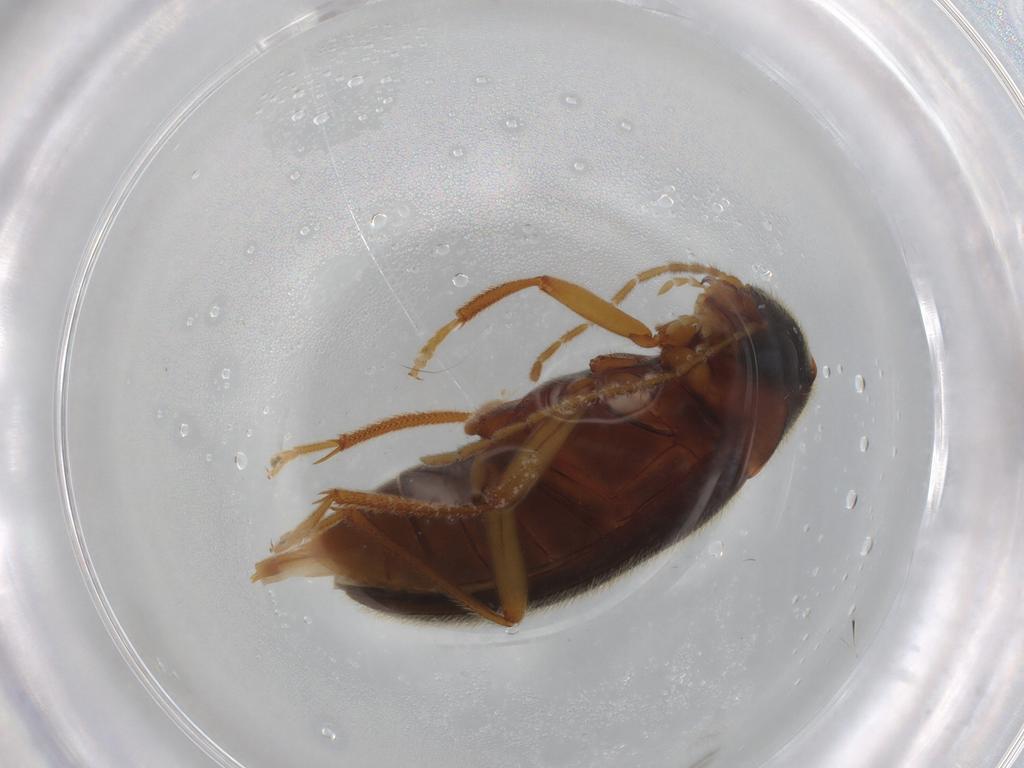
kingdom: Animalia
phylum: Arthropoda
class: Insecta
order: Coleoptera
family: Ptilodactylidae
